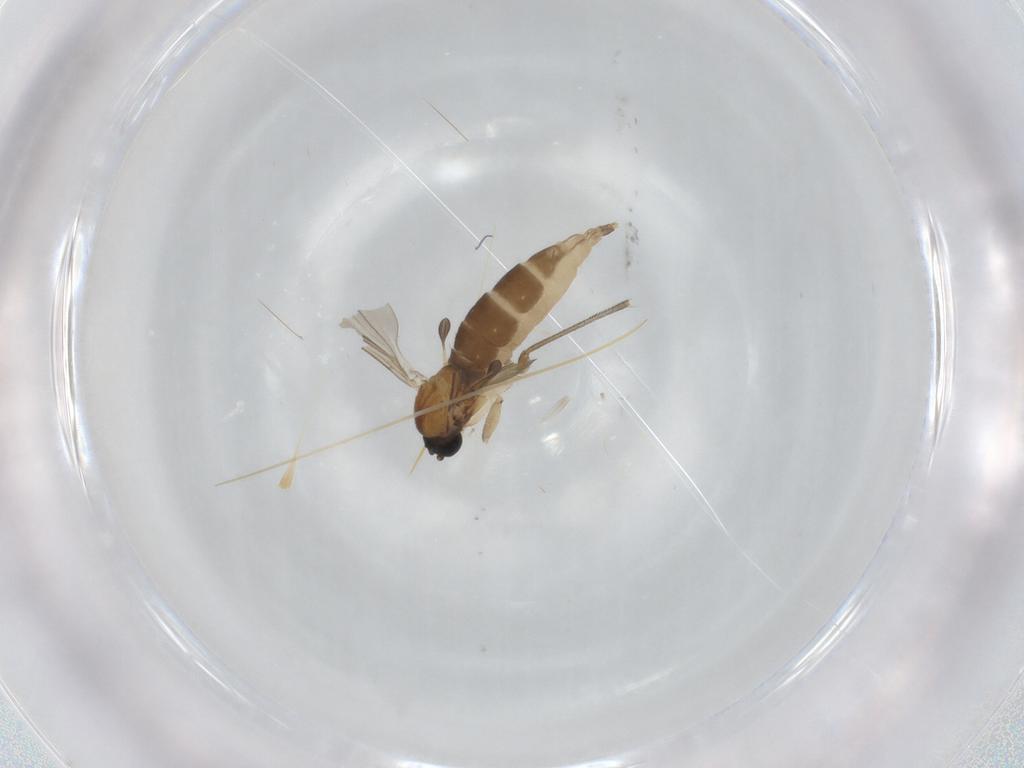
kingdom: Animalia
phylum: Arthropoda
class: Insecta
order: Diptera
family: Sciaridae
